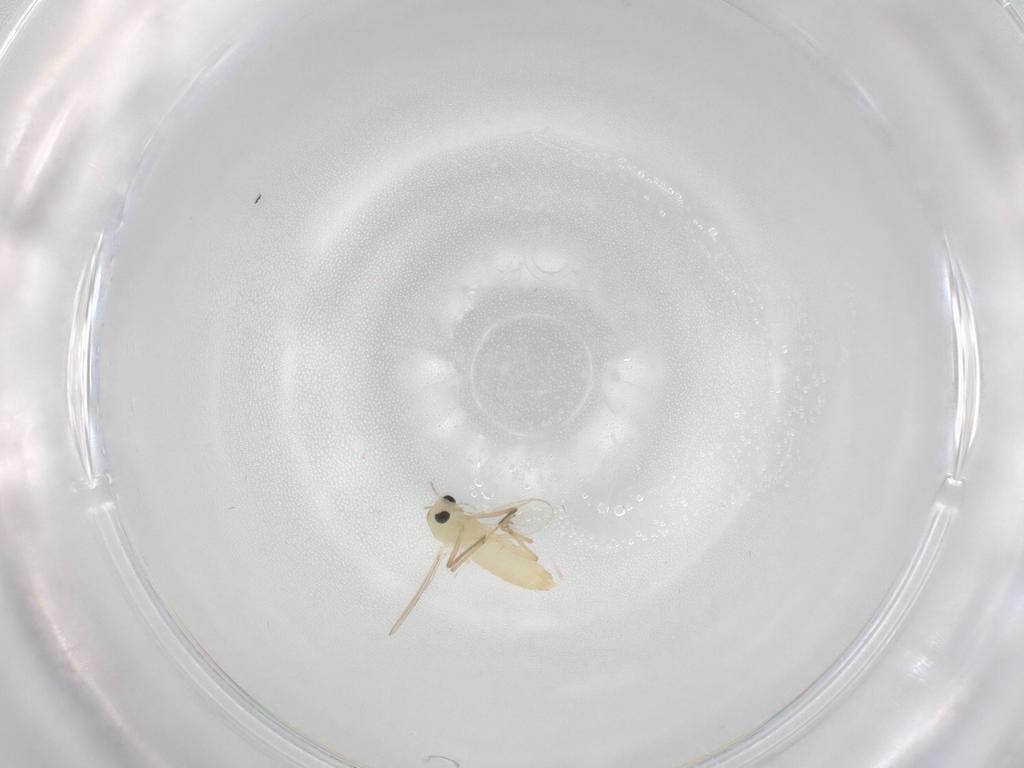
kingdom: Animalia
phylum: Arthropoda
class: Insecta
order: Diptera
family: Chironomidae
